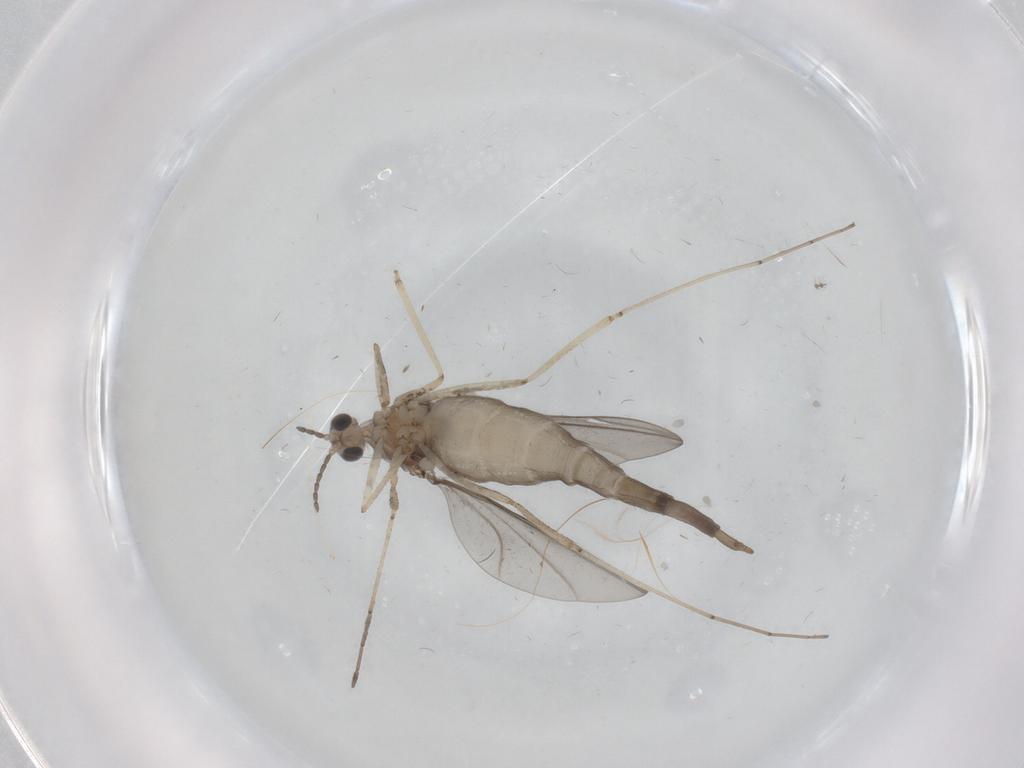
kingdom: Animalia
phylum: Arthropoda
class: Insecta
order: Diptera
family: Cecidomyiidae
